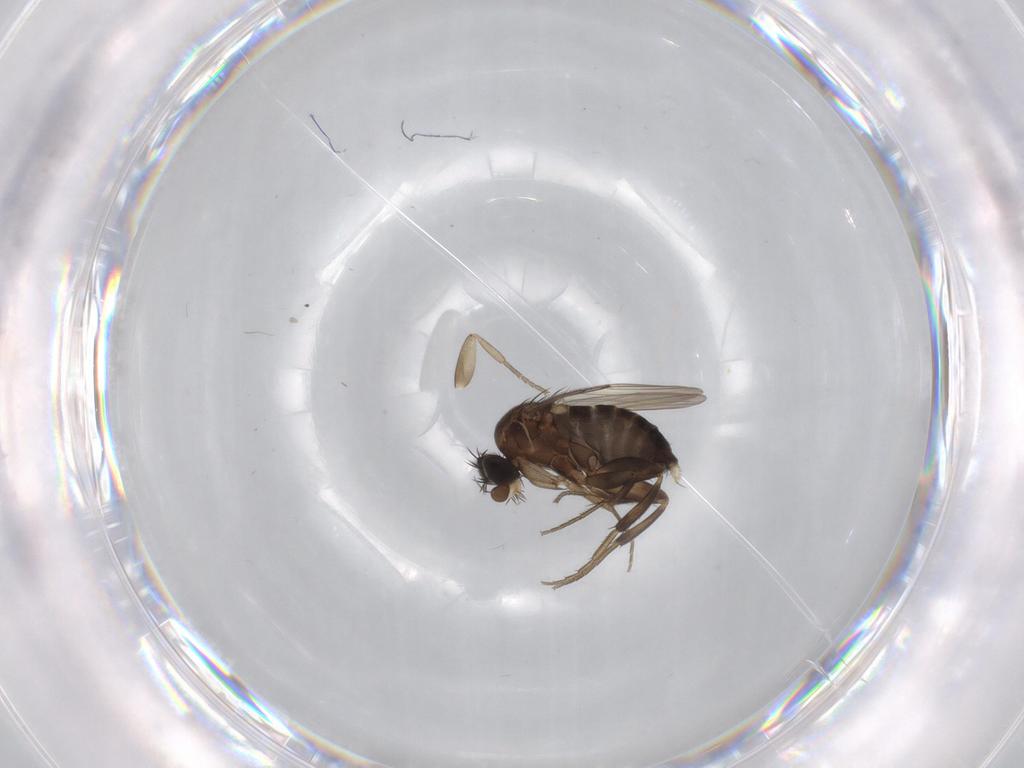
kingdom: Animalia
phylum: Arthropoda
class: Insecta
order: Diptera
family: Phoridae
